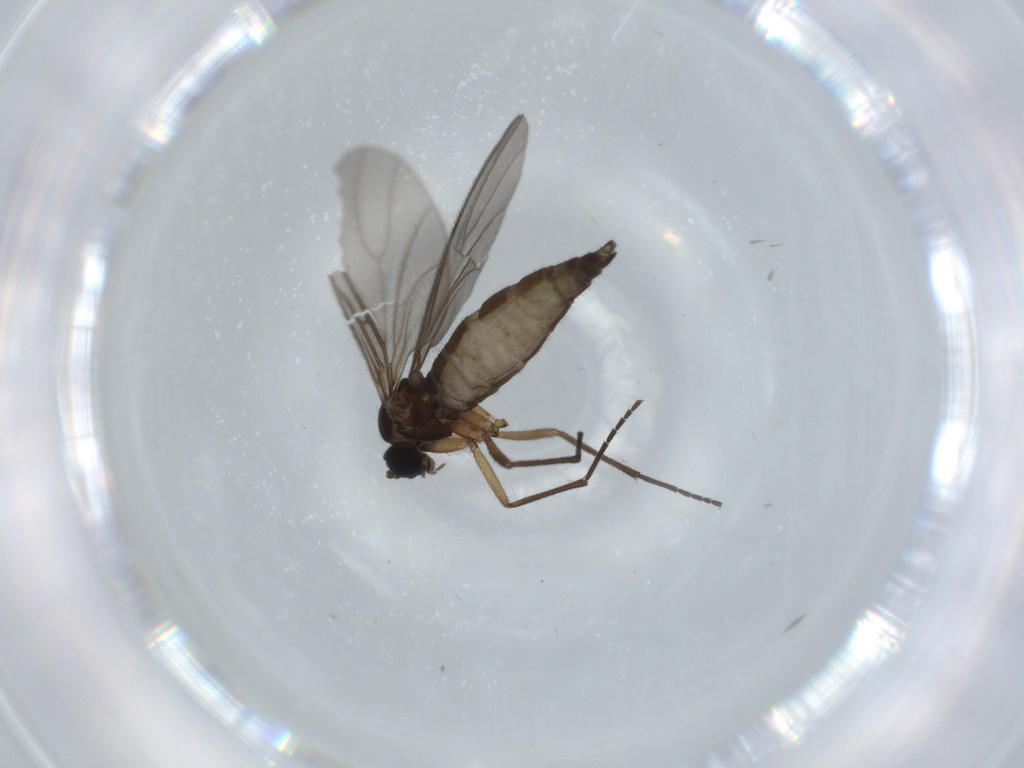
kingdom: Animalia
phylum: Arthropoda
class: Insecta
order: Diptera
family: Sciaridae
